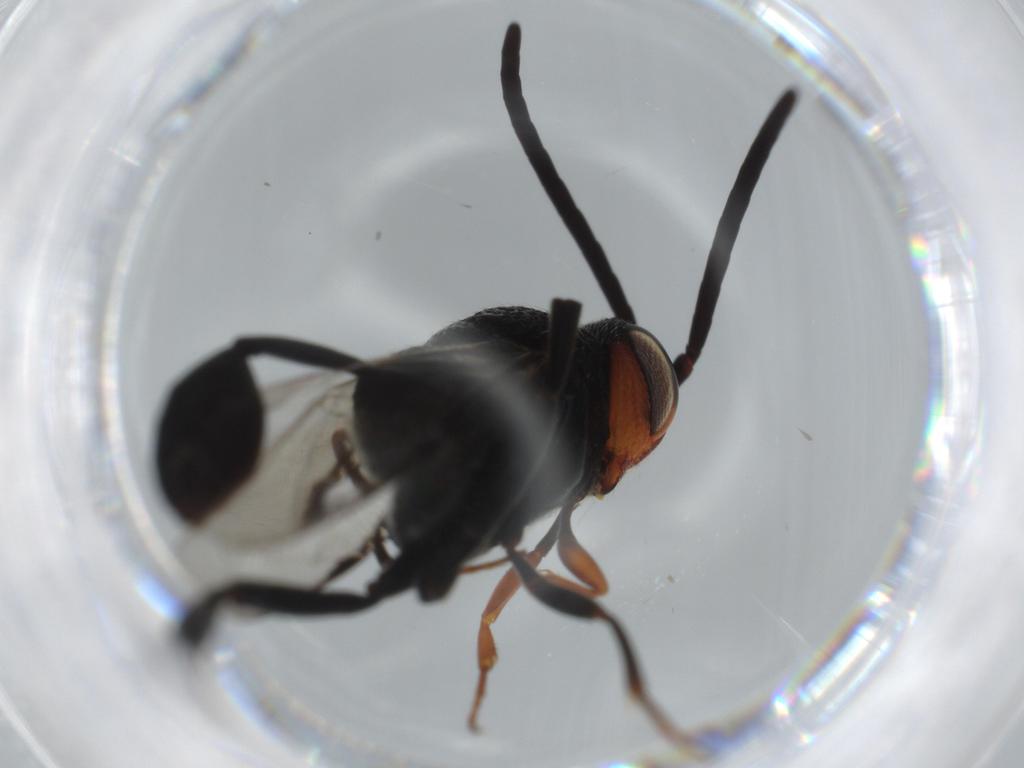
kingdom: Animalia
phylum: Arthropoda
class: Insecta
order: Hymenoptera
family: Evaniidae
